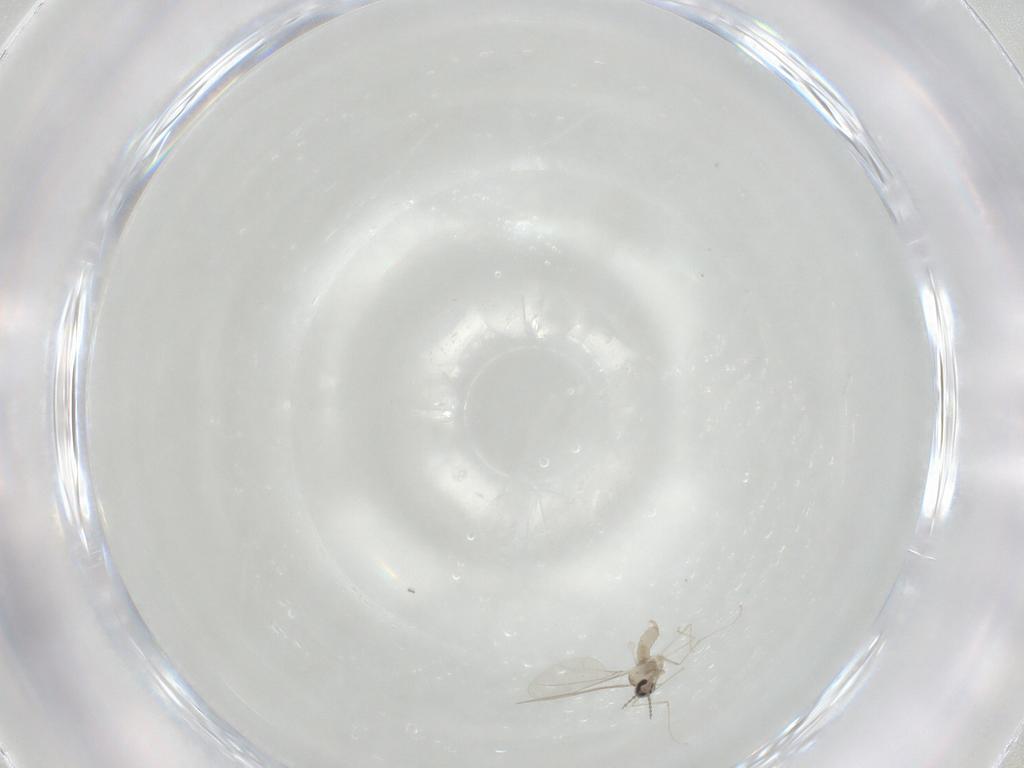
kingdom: Animalia
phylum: Arthropoda
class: Insecta
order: Diptera
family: Cecidomyiidae
